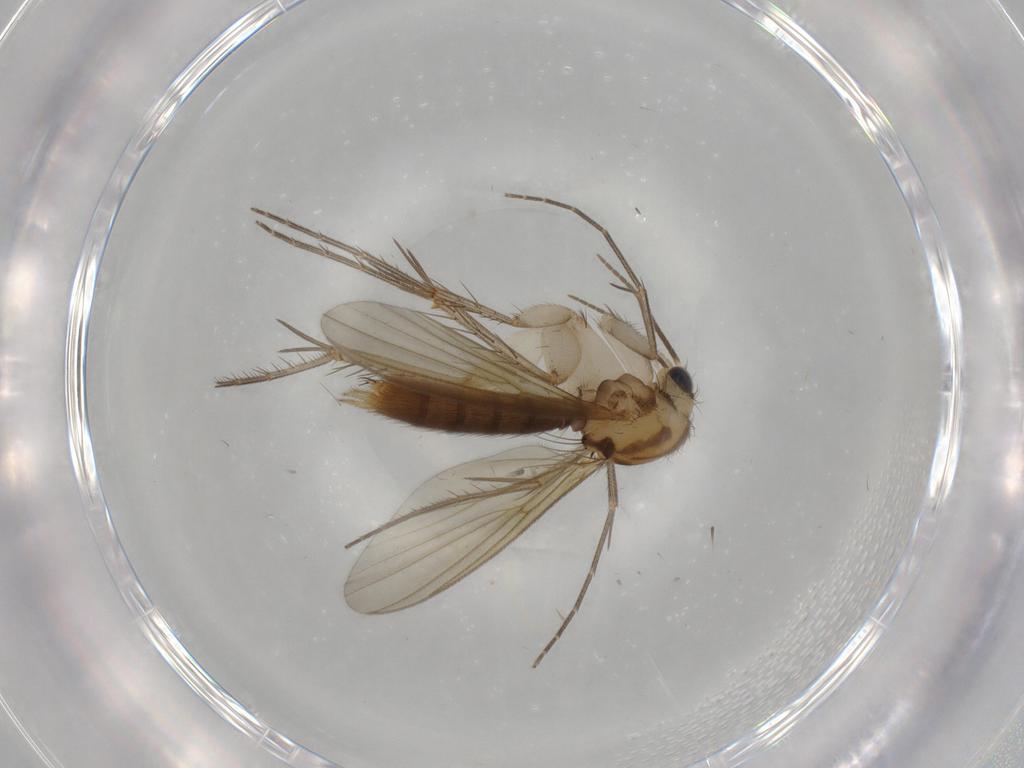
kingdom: Animalia
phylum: Arthropoda
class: Insecta
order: Diptera
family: Mycetophilidae
